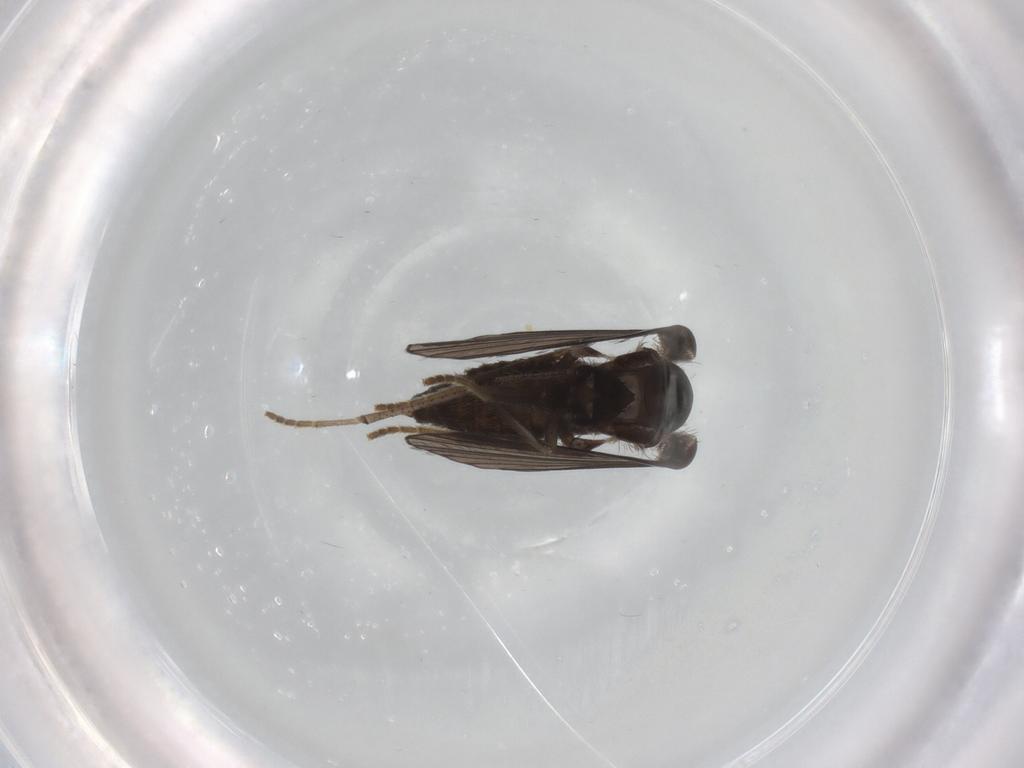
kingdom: Animalia
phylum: Arthropoda
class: Insecta
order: Diptera
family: Psychodidae
